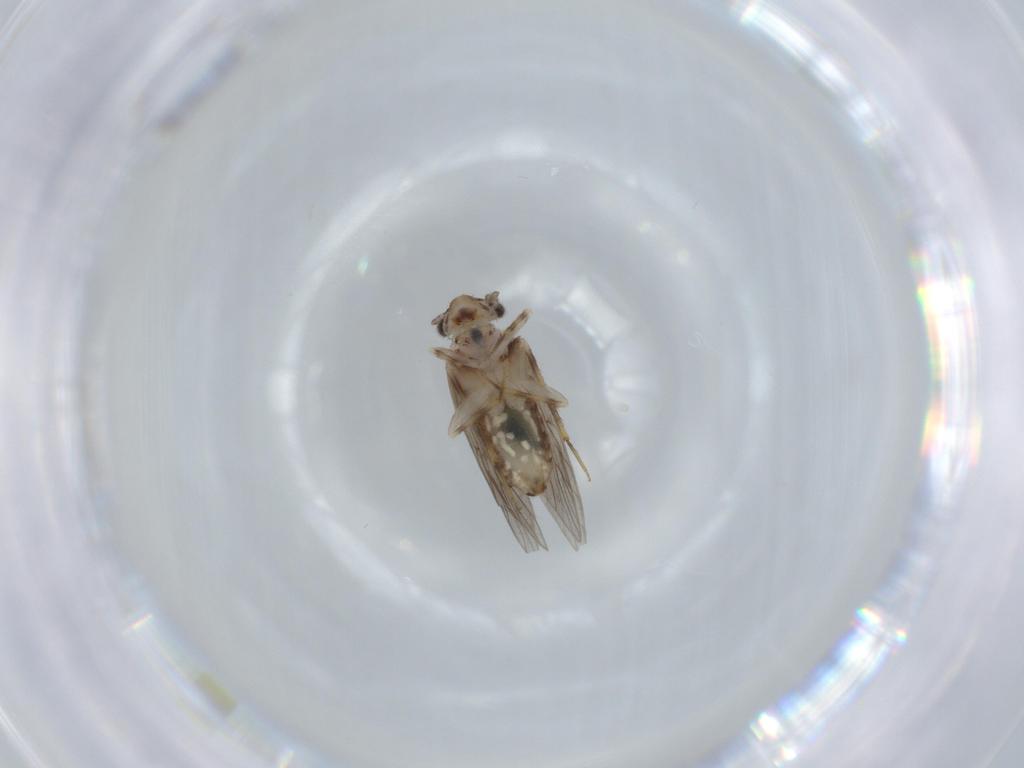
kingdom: Animalia
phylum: Arthropoda
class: Insecta
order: Psocodea
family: Lepidopsocidae
